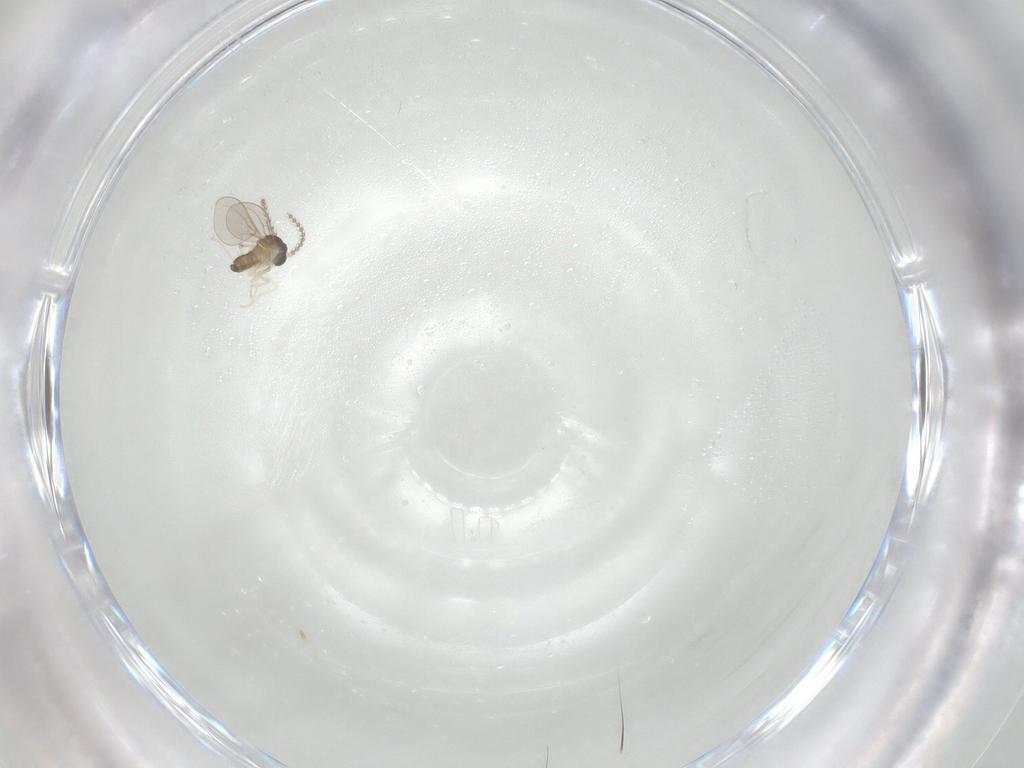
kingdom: Animalia
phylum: Arthropoda
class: Insecta
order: Diptera
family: Cecidomyiidae
